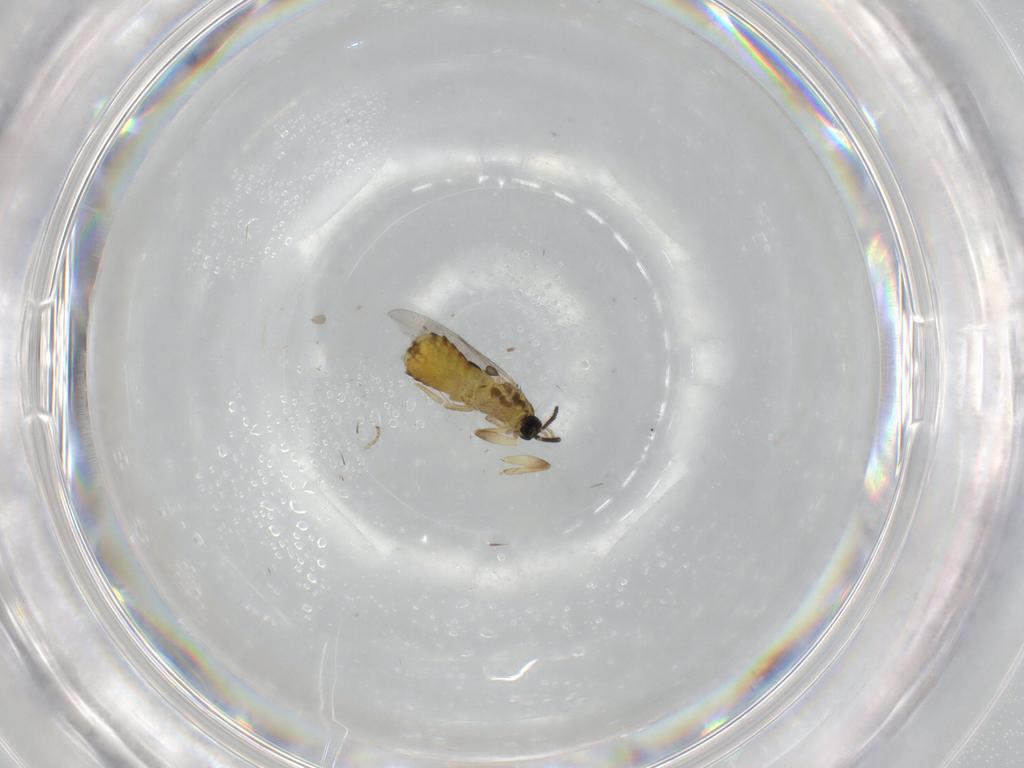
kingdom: Animalia
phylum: Arthropoda
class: Insecta
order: Diptera
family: Scatopsidae
